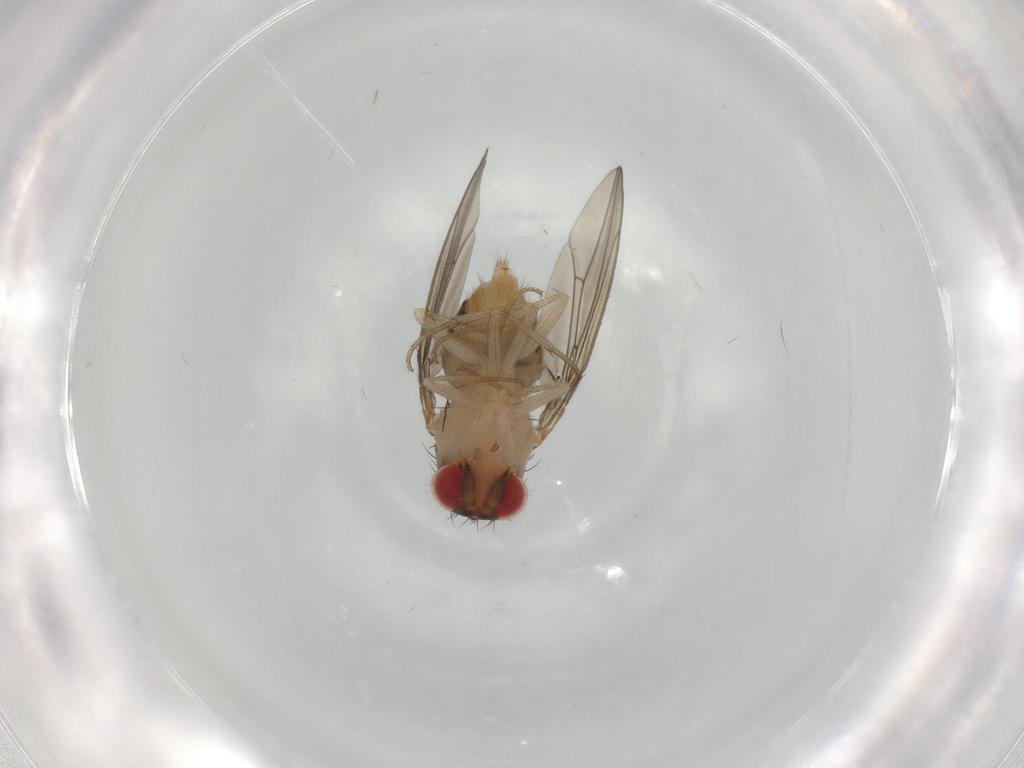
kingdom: Animalia
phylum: Arthropoda
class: Insecta
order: Diptera
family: Drosophilidae
